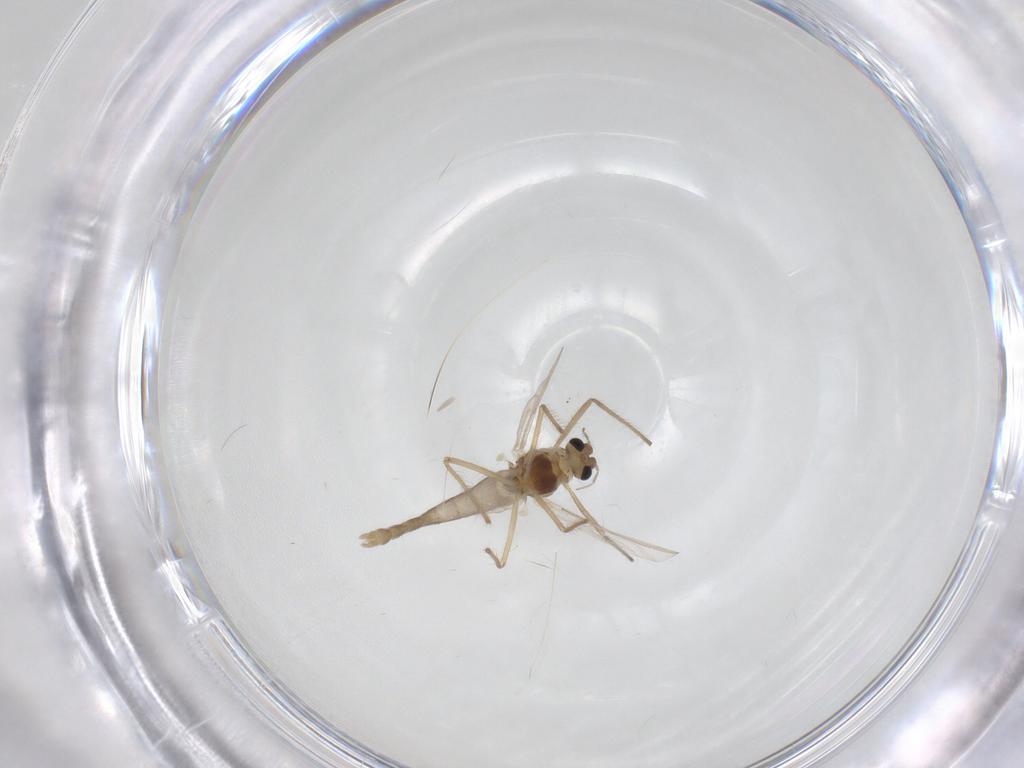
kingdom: Animalia
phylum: Arthropoda
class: Insecta
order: Diptera
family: Chironomidae
